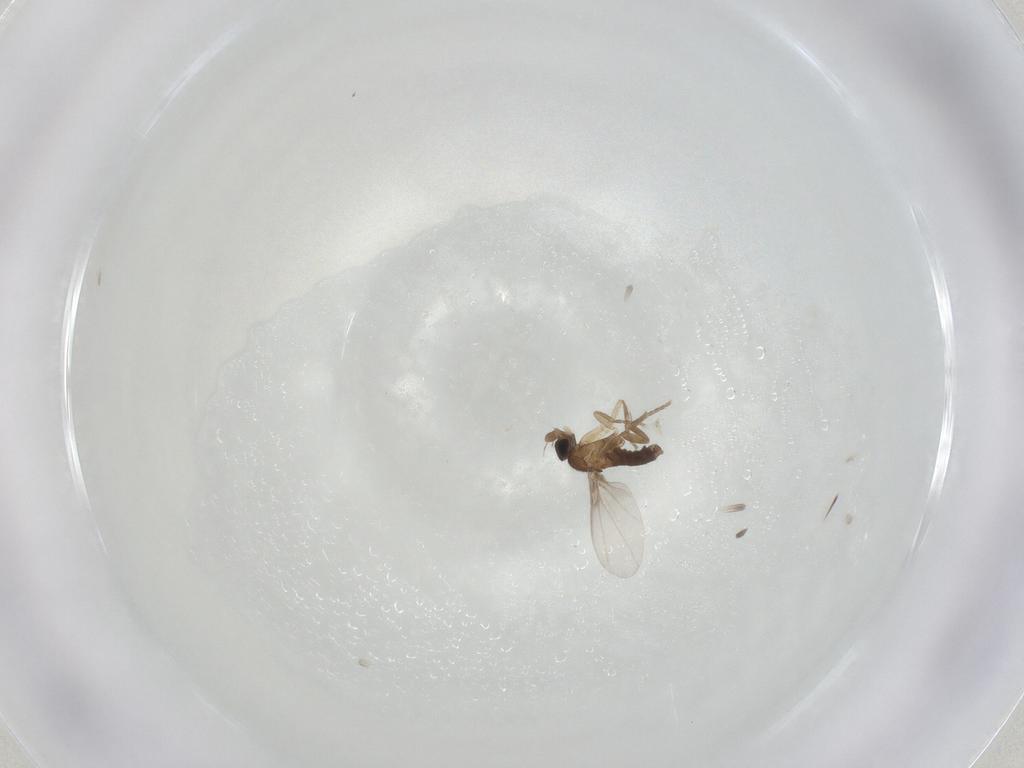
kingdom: Animalia
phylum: Arthropoda
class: Insecta
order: Diptera
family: Phoridae
